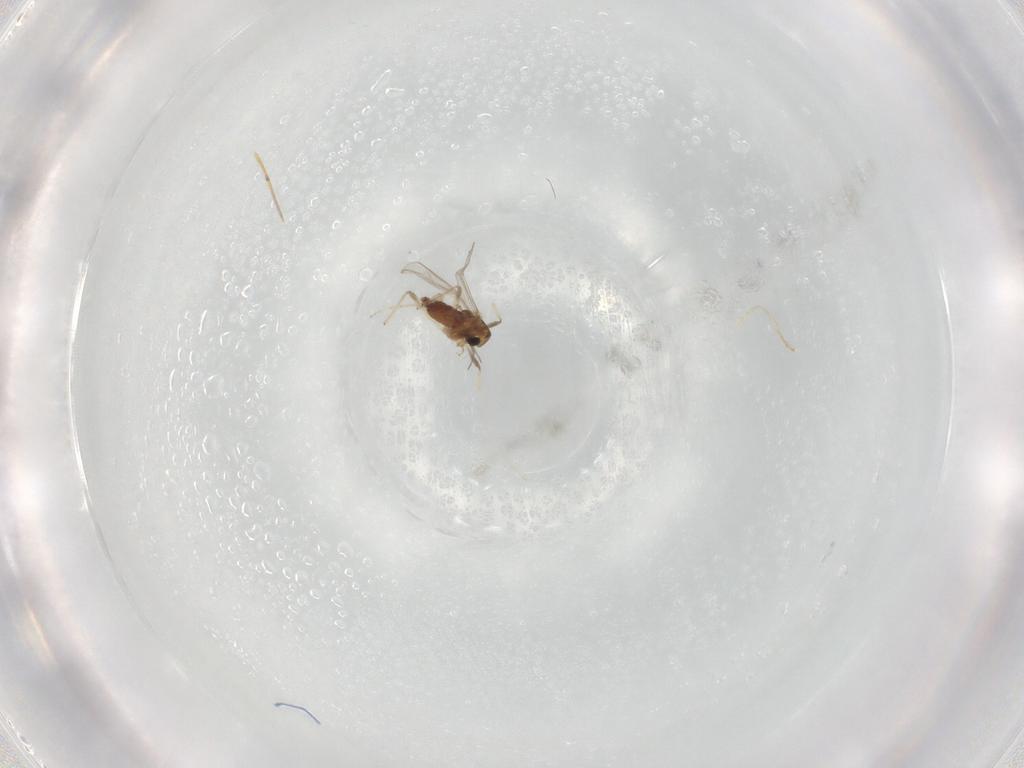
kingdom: Animalia
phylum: Arthropoda
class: Insecta
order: Diptera
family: Chironomidae
